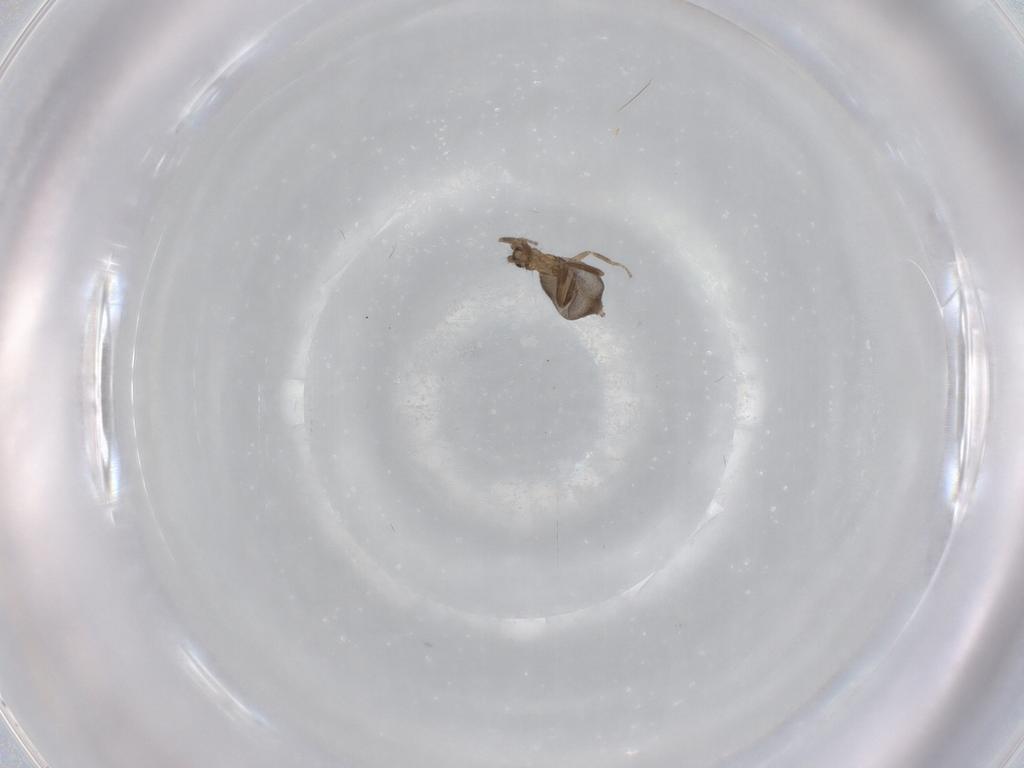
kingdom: Animalia
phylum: Arthropoda
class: Insecta
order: Diptera
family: Phoridae
